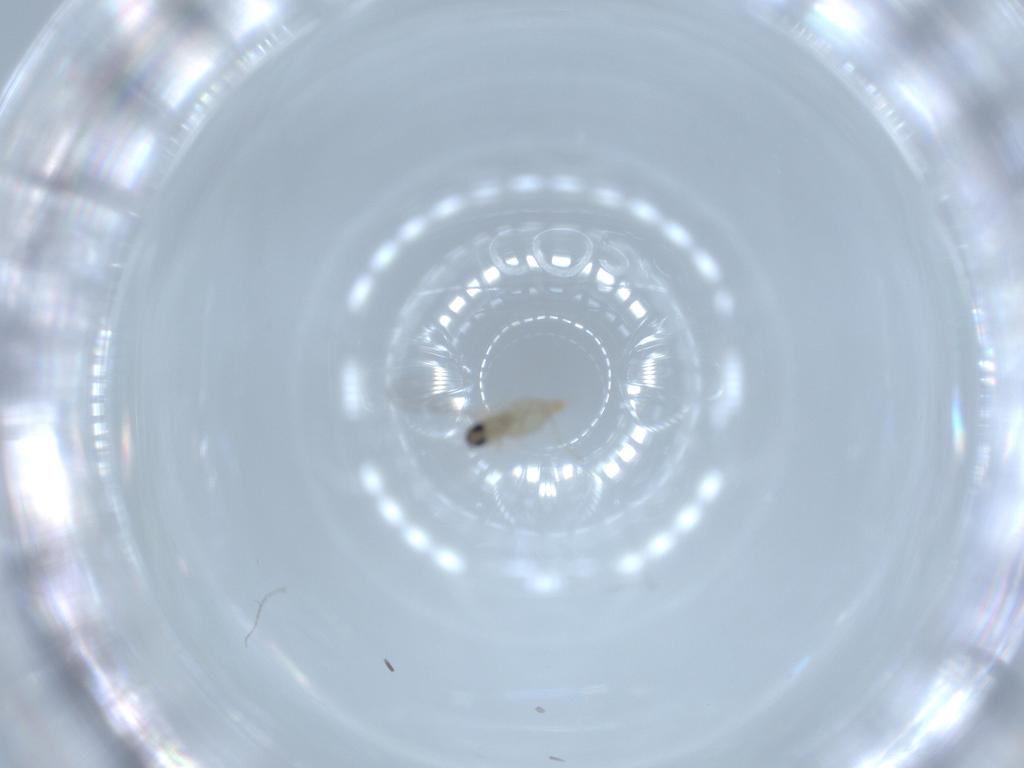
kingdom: Animalia
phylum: Arthropoda
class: Insecta
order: Diptera
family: Cecidomyiidae
